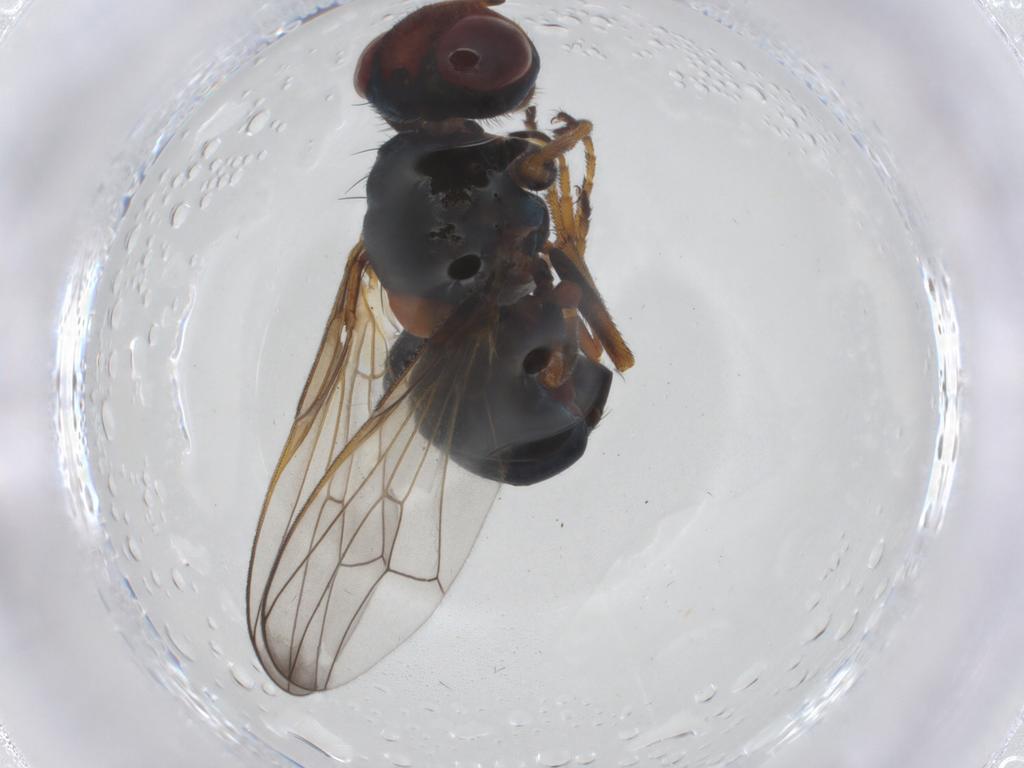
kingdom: Animalia
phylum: Arthropoda
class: Insecta
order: Diptera
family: Ulidiidae
